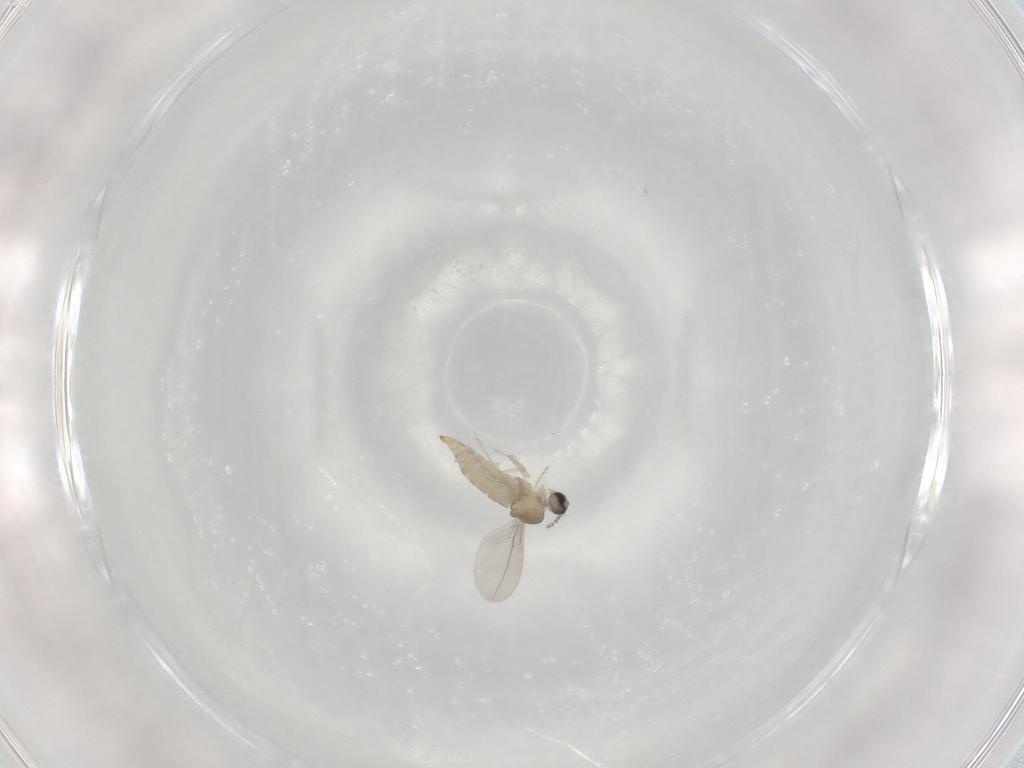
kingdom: Animalia
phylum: Arthropoda
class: Insecta
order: Diptera
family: Cecidomyiidae
